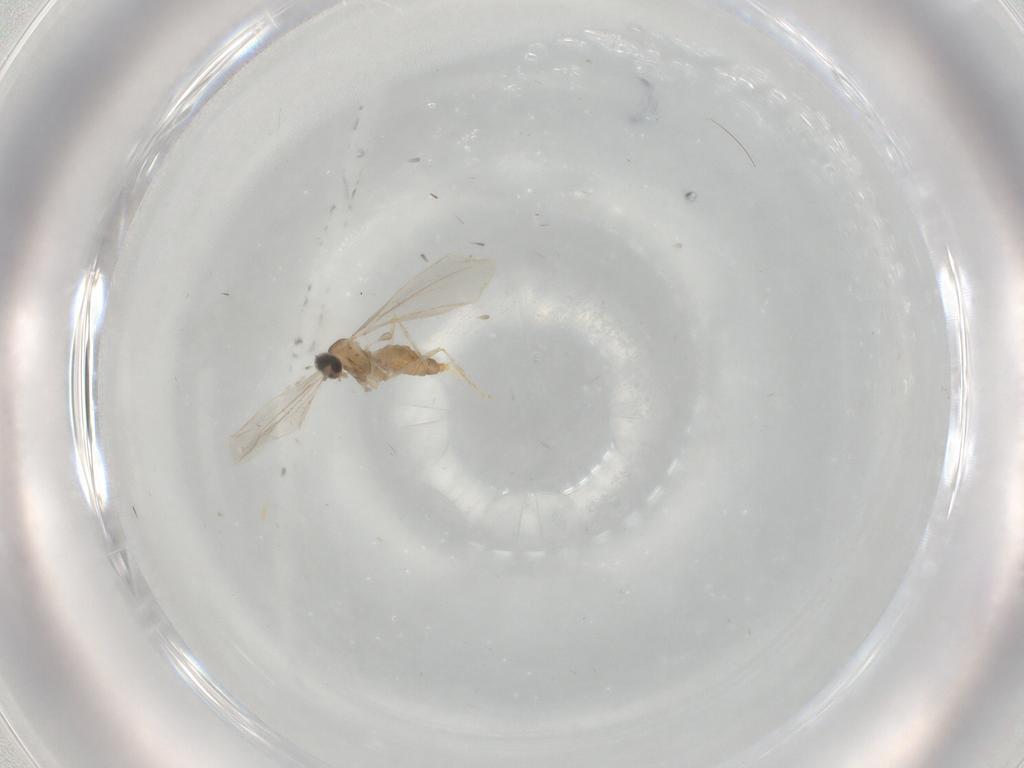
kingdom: Animalia
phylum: Arthropoda
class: Insecta
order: Diptera
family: Cecidomyiidae
